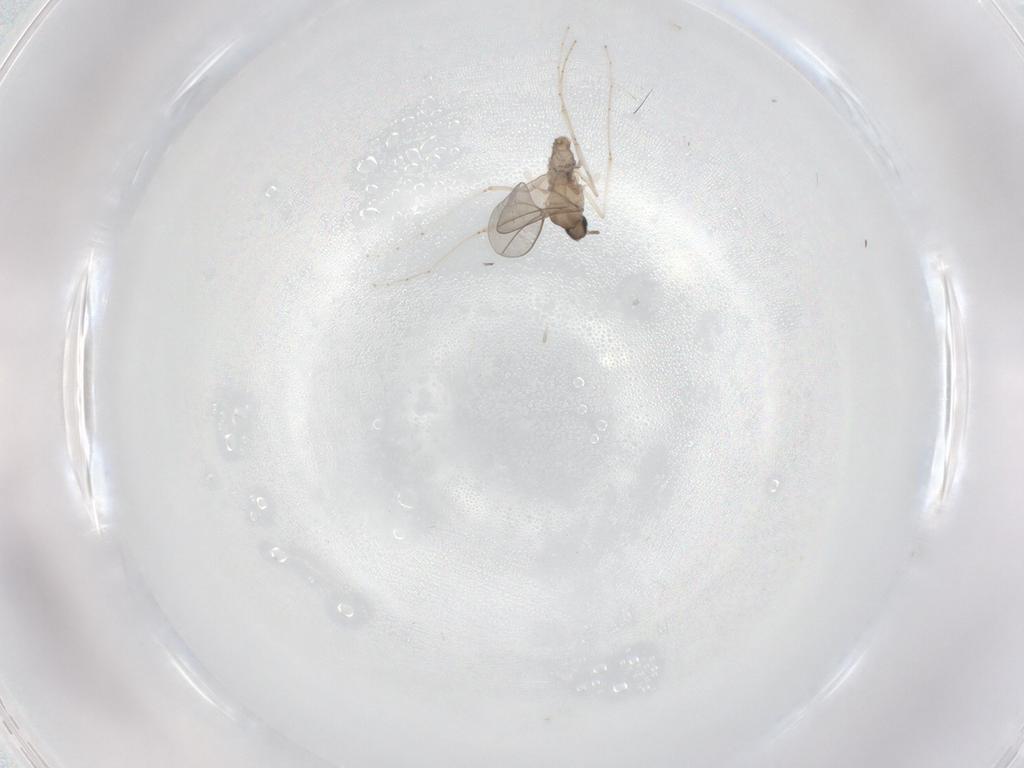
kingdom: Animalia
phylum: Arthropoda
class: Insecta
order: Diptera
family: Cecidomyiidae
